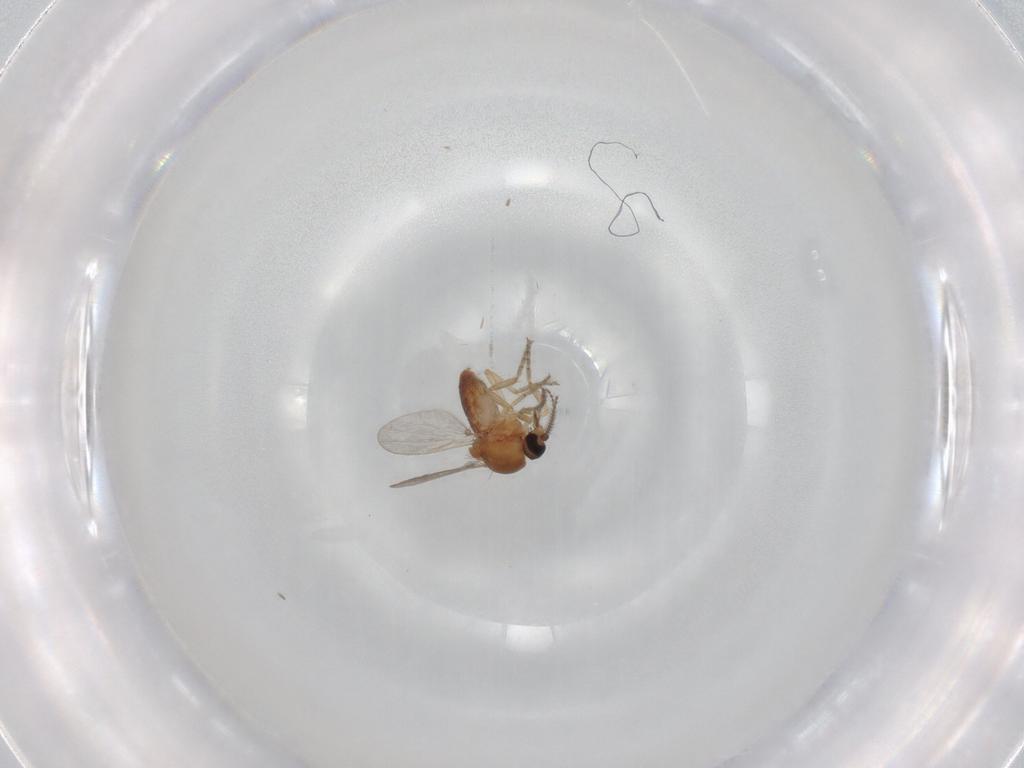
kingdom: Animalia
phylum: Arthropoda
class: Insecta
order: Diptera
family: Ceratopogonidae
